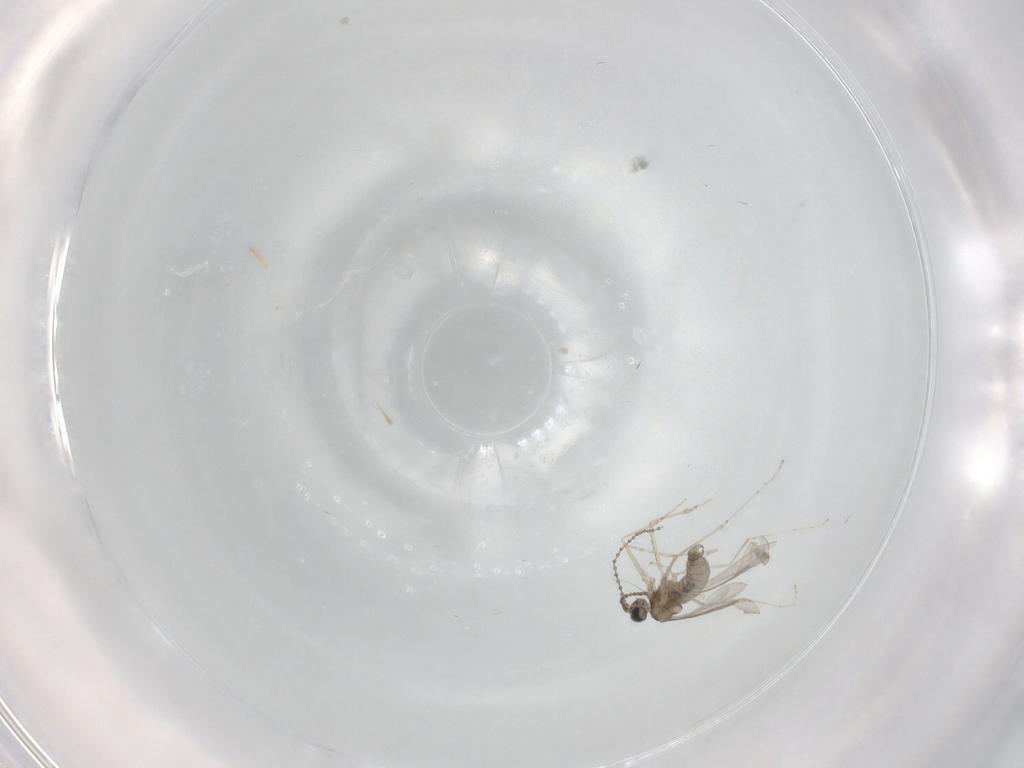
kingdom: Animalia
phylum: Arthropoda
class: Insecta
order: Diptera
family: Cecidomyiidae
